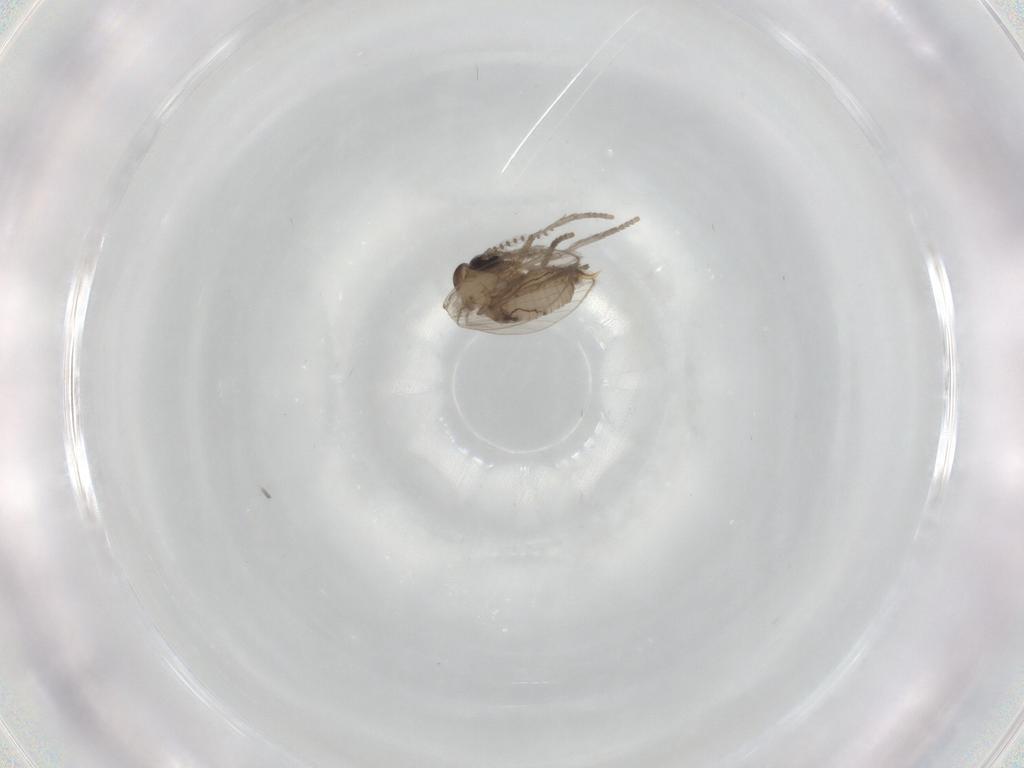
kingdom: Animalia
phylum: Arthropoda
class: Insecta
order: Diptera
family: Psychodidae
